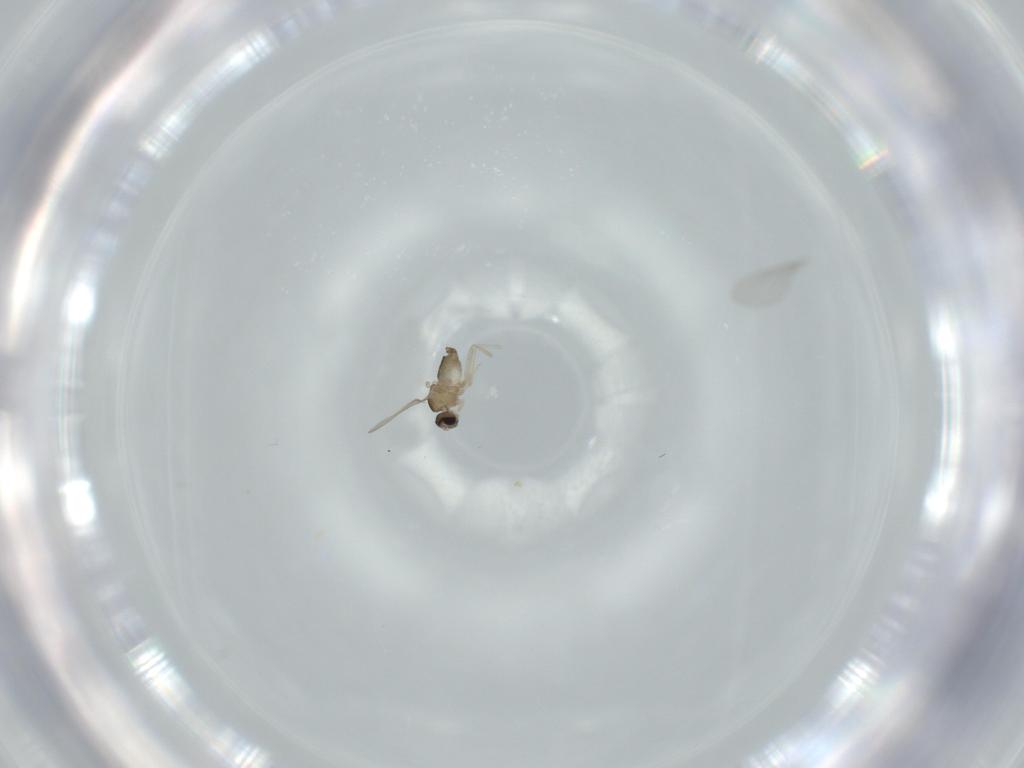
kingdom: Animalia
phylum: Arthropoda
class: Insecta
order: Diptera
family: Cecidomyiidae
